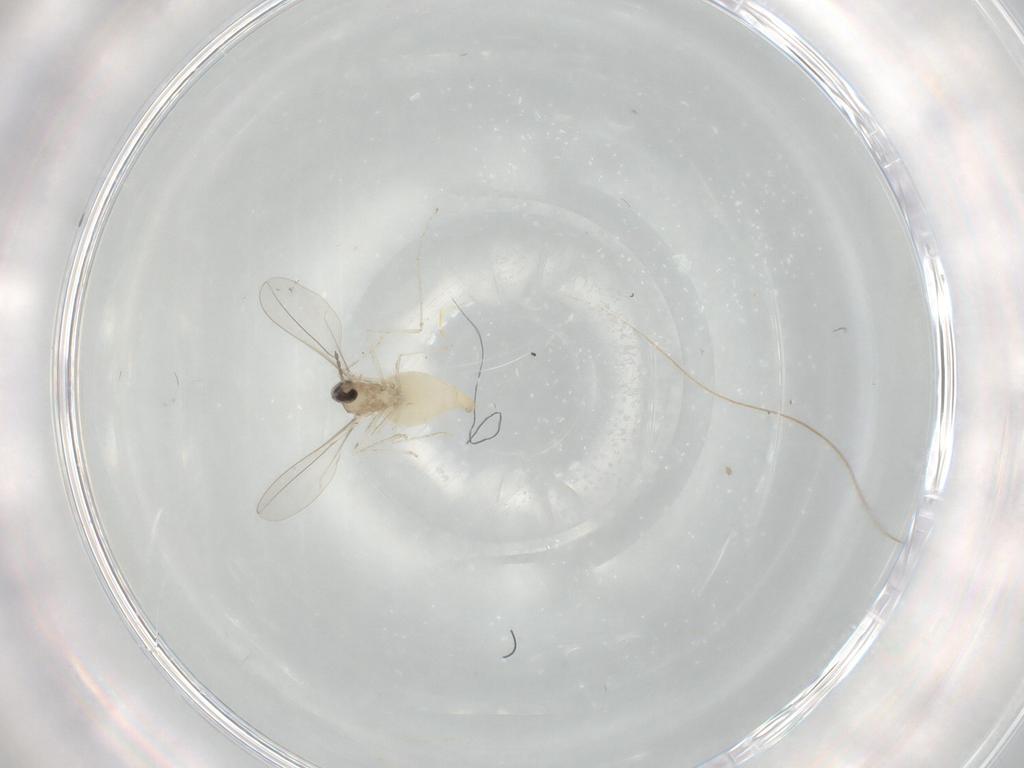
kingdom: Animalia
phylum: Arthropoda
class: Insecta
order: Diptera
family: Cecidomyiidae
